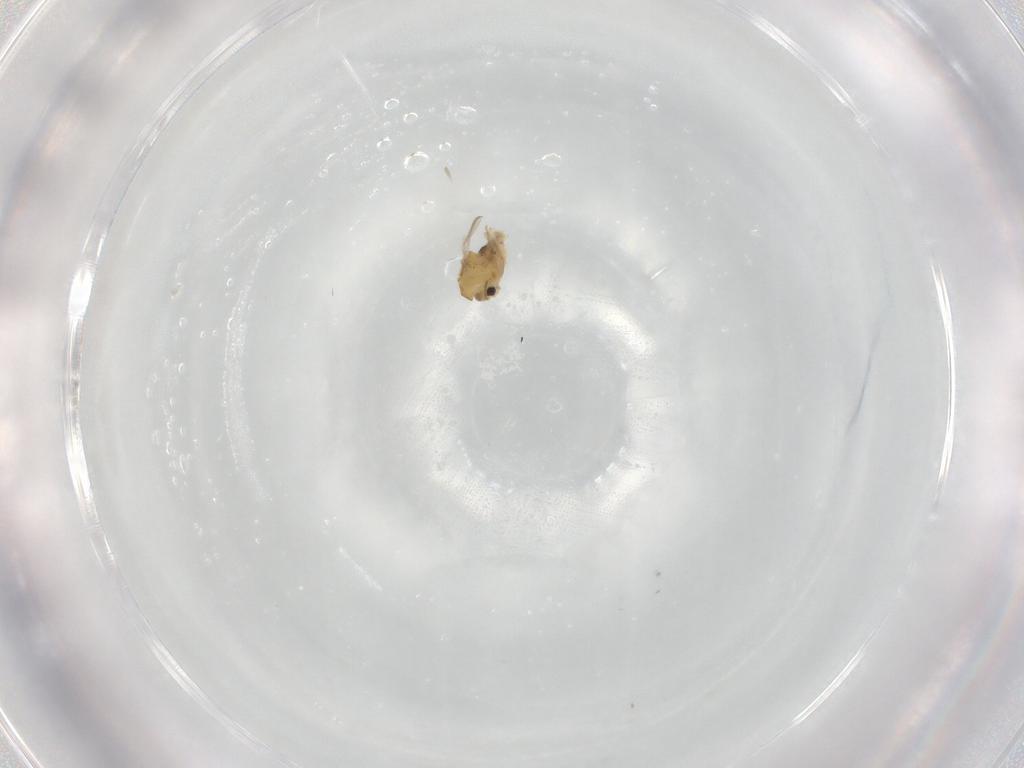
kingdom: Animalia
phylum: Arthropoda
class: Insecta
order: Diptera
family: Chironomidae
